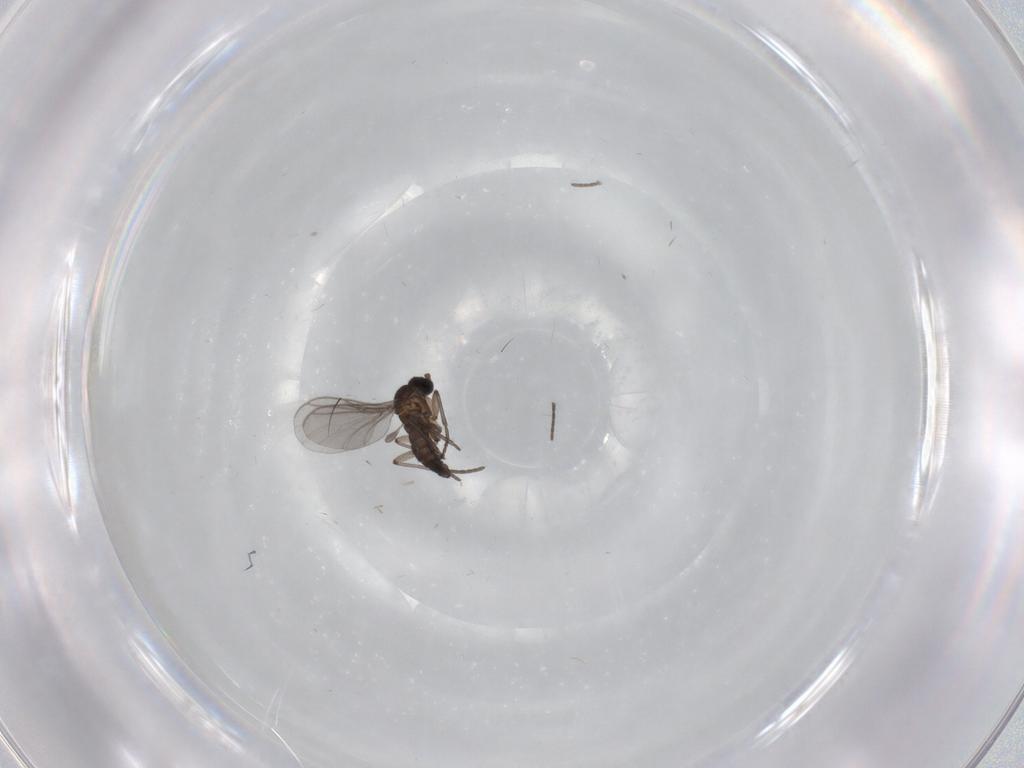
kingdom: Animalia
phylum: Arthropoda
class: Insecta
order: Diptera
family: Sciaridae
